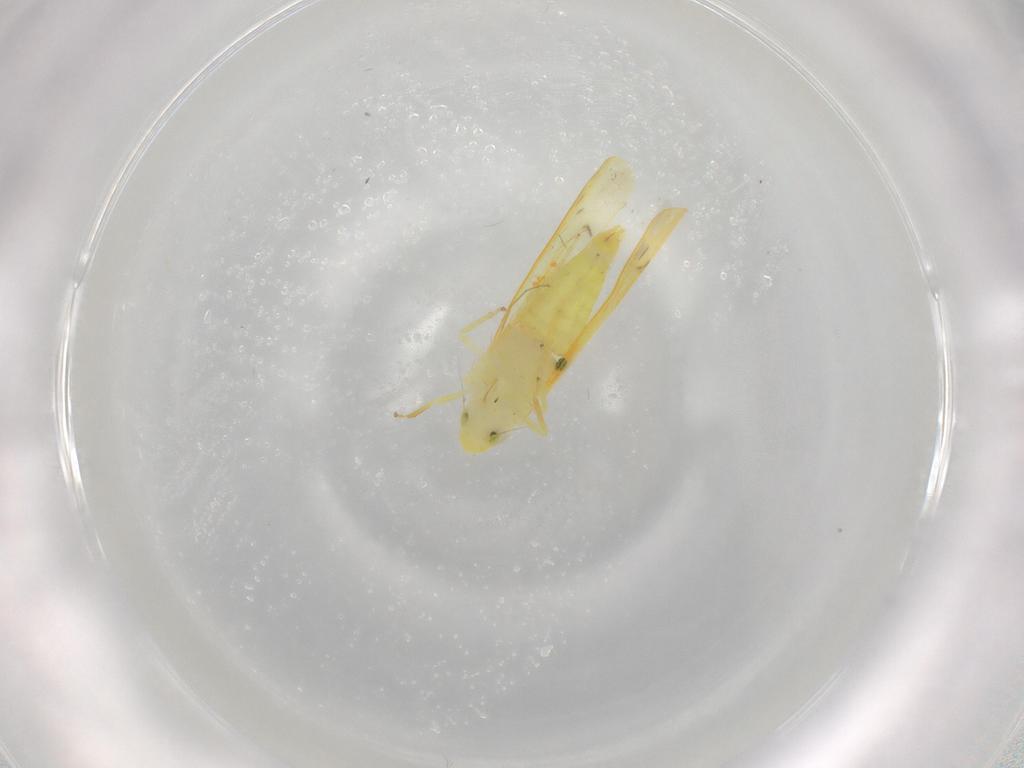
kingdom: Animalia
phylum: Arthropoda
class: Insecta
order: Hemiptera
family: Cicadellidae
